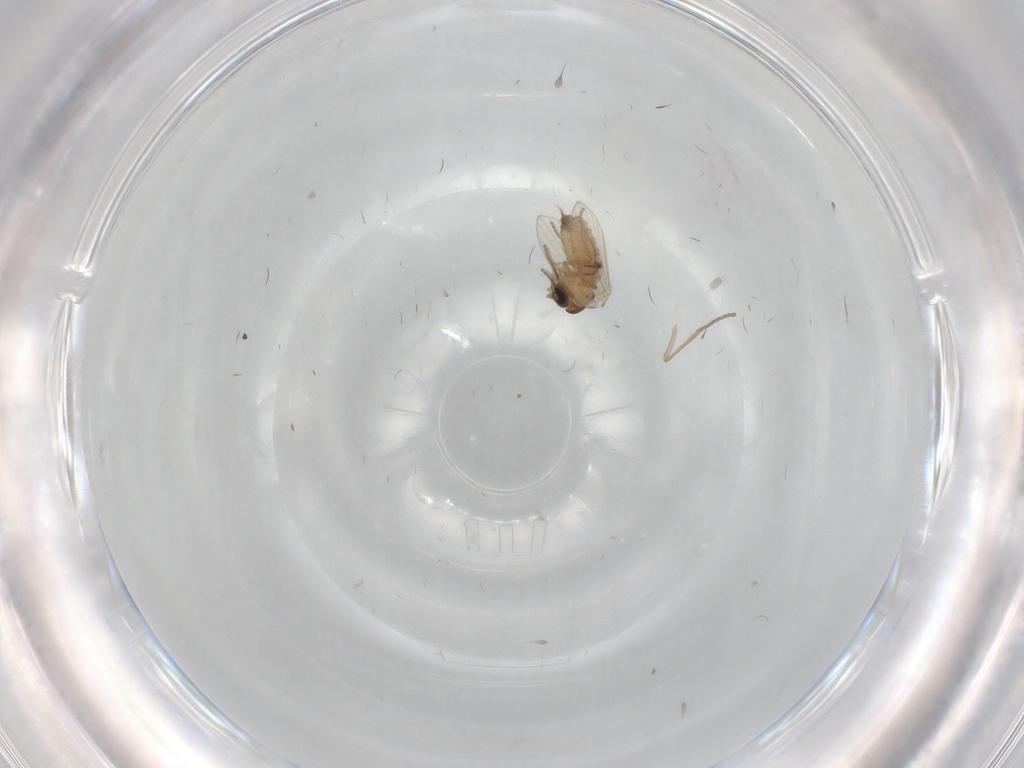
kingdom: Animalia
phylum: Arthropoda
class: Insecta
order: Diptera
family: Psychodidae
